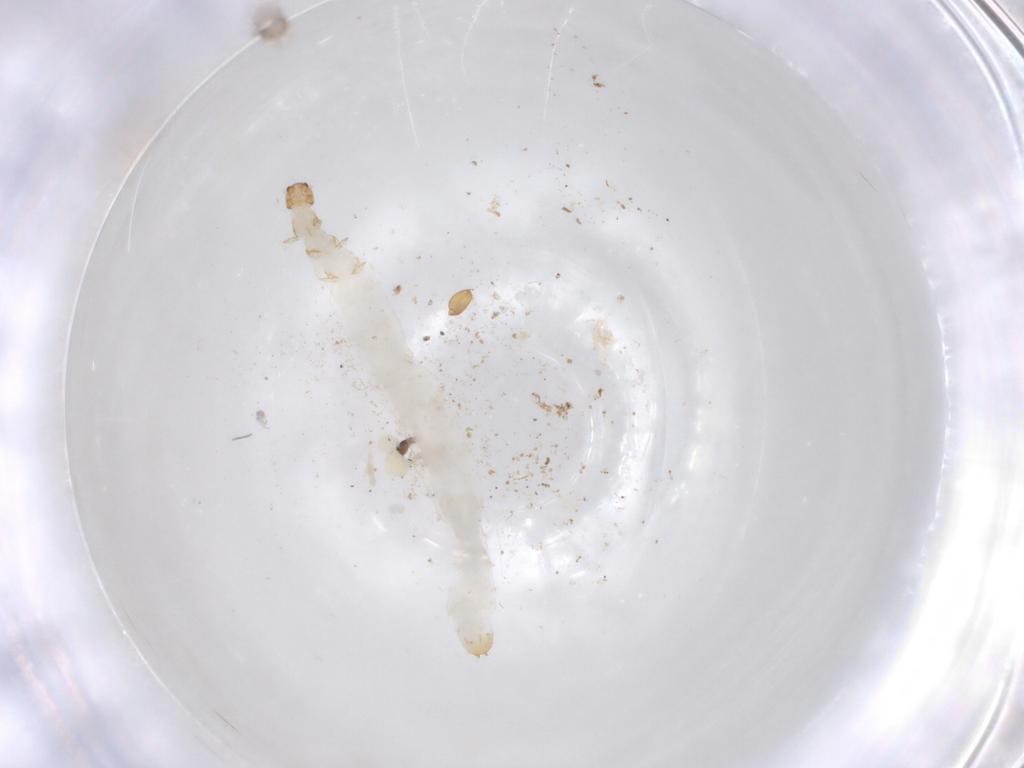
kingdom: Animalia
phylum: Arthropoda
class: Insecta
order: Coleoptera
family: Chrysomelidae
